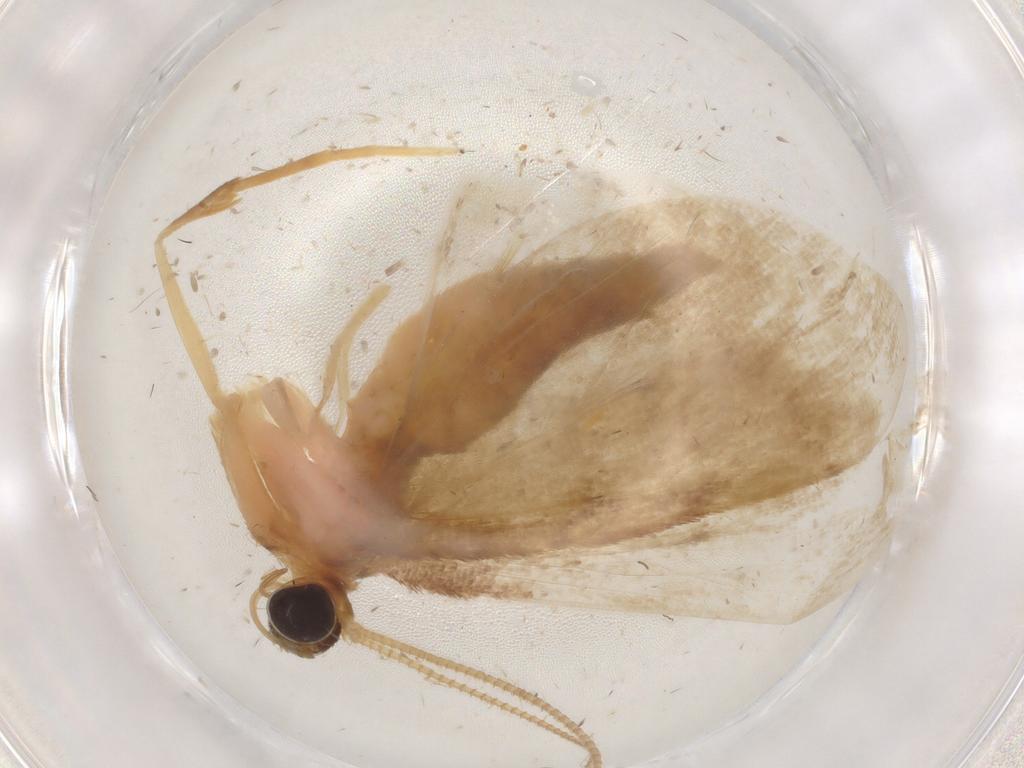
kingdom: Animalia
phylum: Arthropoda
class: Insecta
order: Lepidoptera
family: Geometridae
